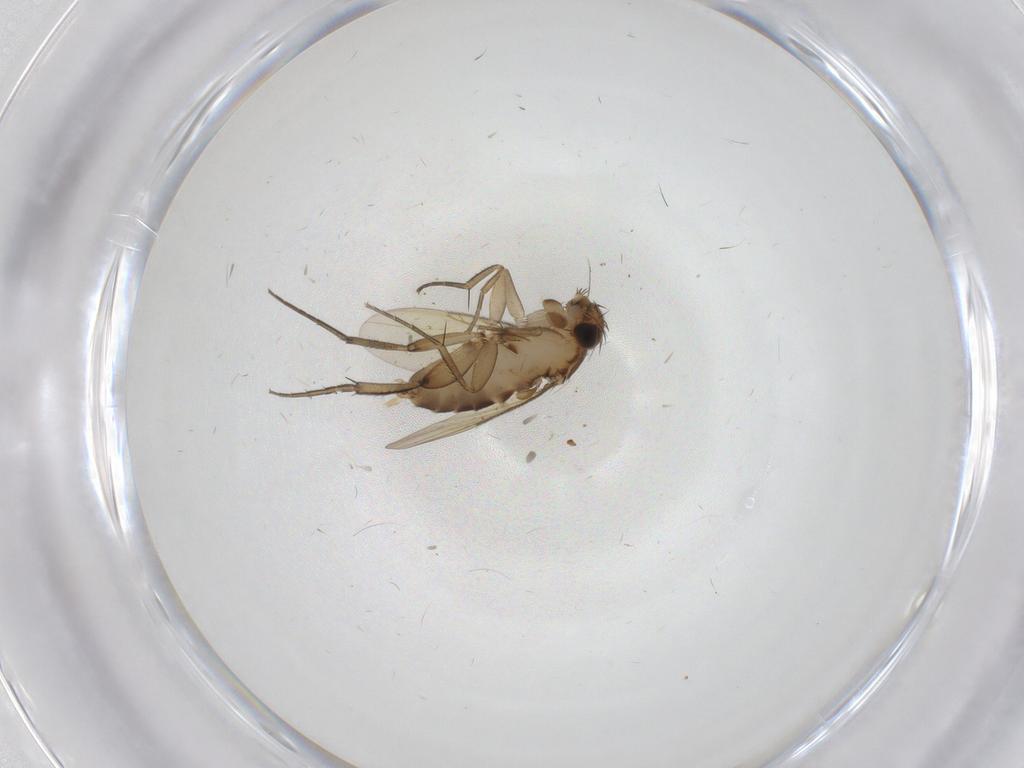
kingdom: Animalia
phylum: Arthropoda
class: Insecta
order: Diptera
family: Phoridae
